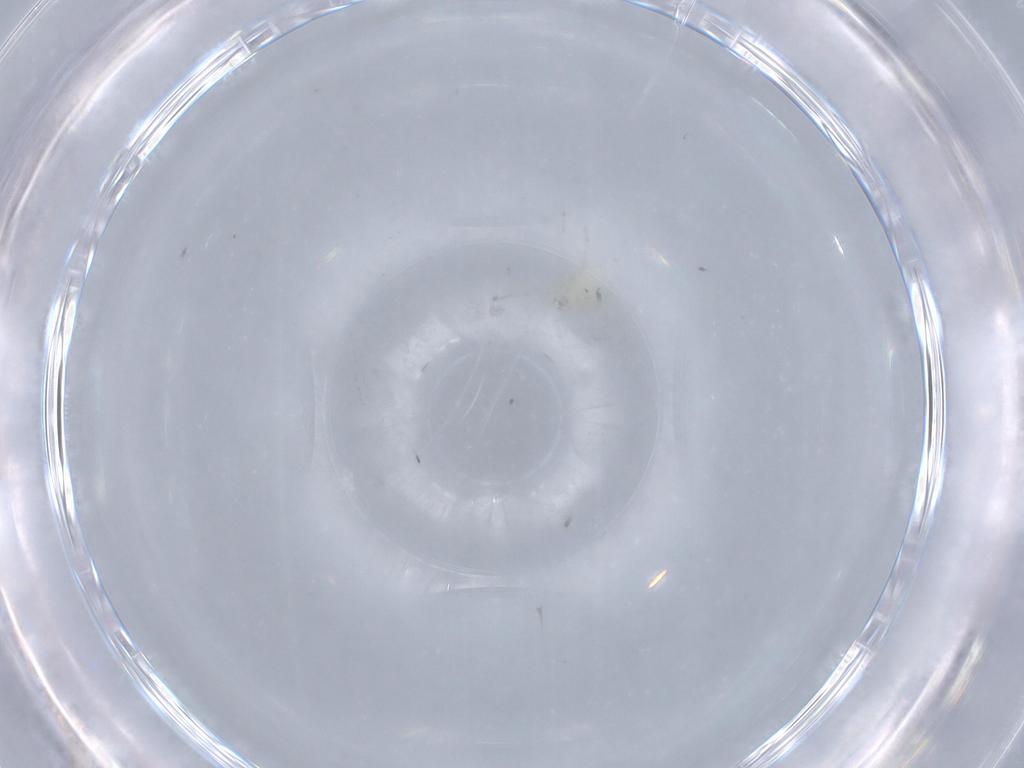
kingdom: Animalia
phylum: Arthropoda
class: Arachnida
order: Trombidiformes
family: Erythraeidae
